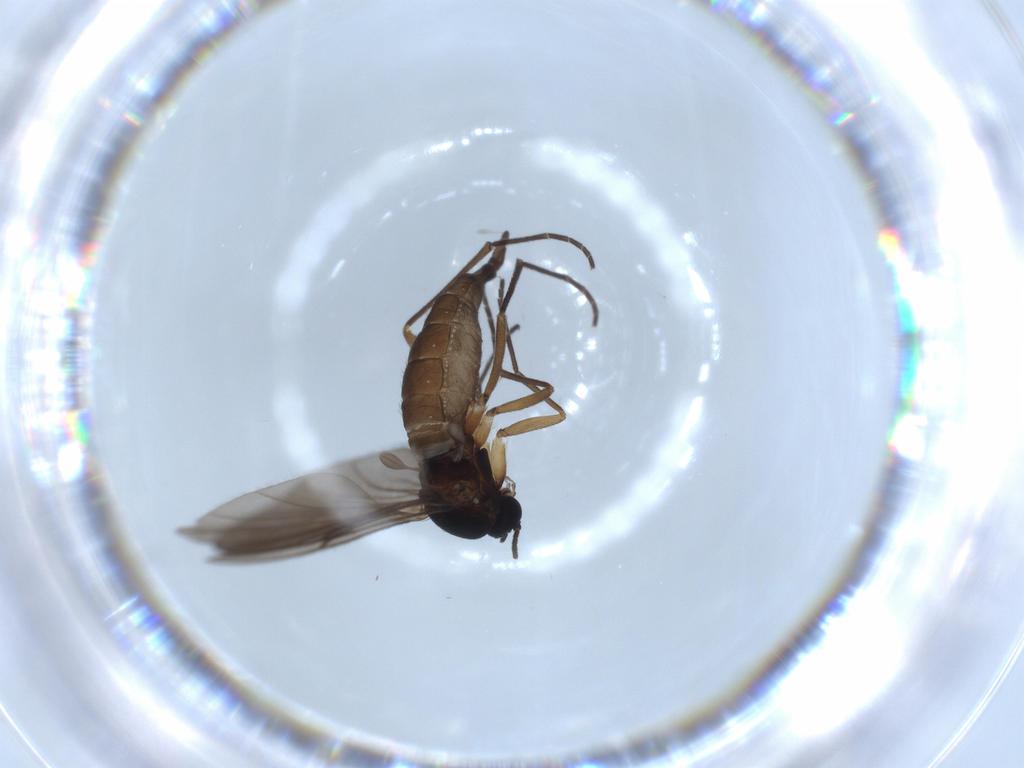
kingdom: Animalia
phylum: Arthropoda
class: Insecta
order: Diptera
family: Sciaridae
